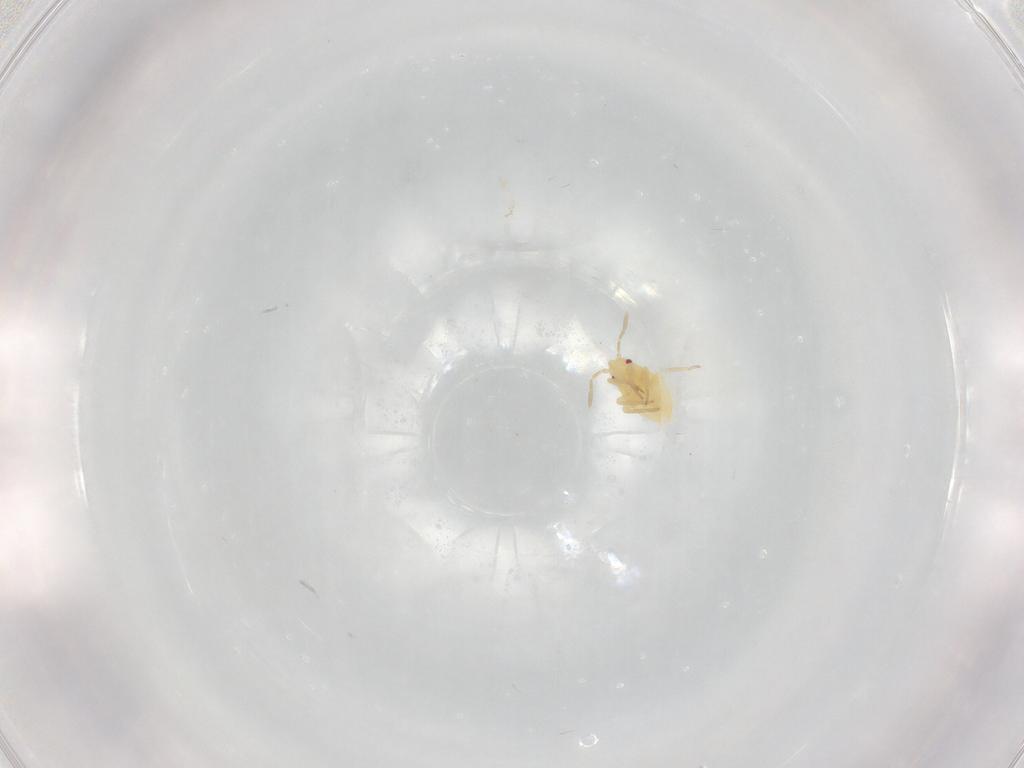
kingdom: Animalia
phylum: Arthropoda
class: Insecta
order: Hemiptera
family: Miridae
